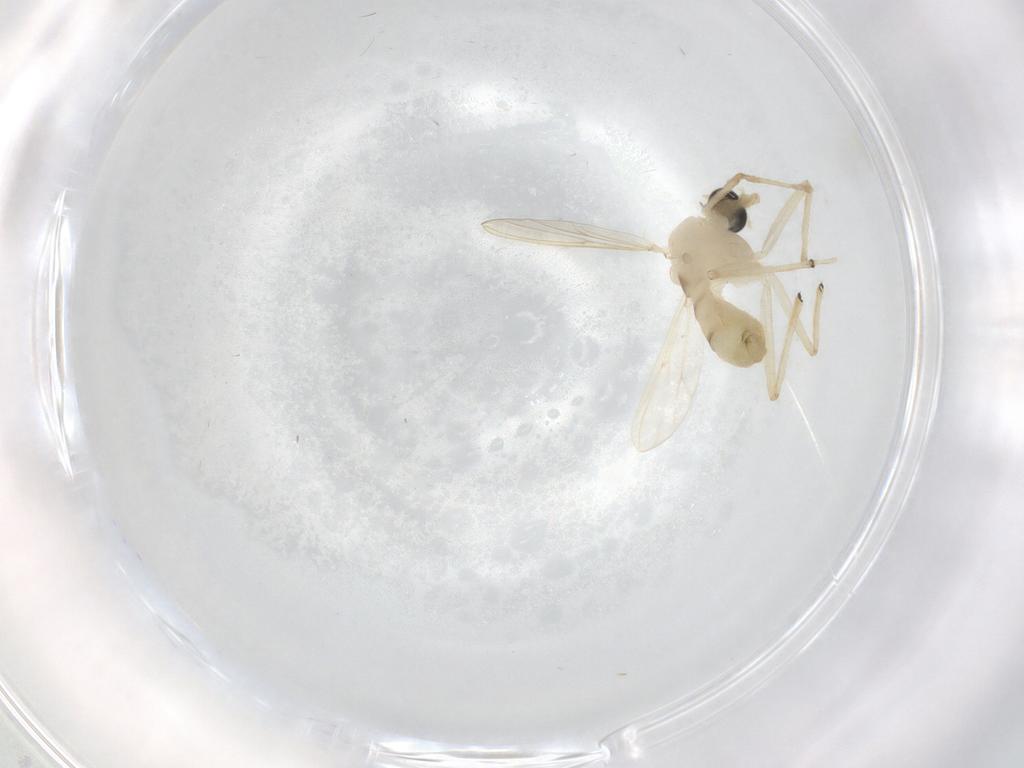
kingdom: Animalia
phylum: Arthropoda
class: Insecta
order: Diptera
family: Chironomidae
